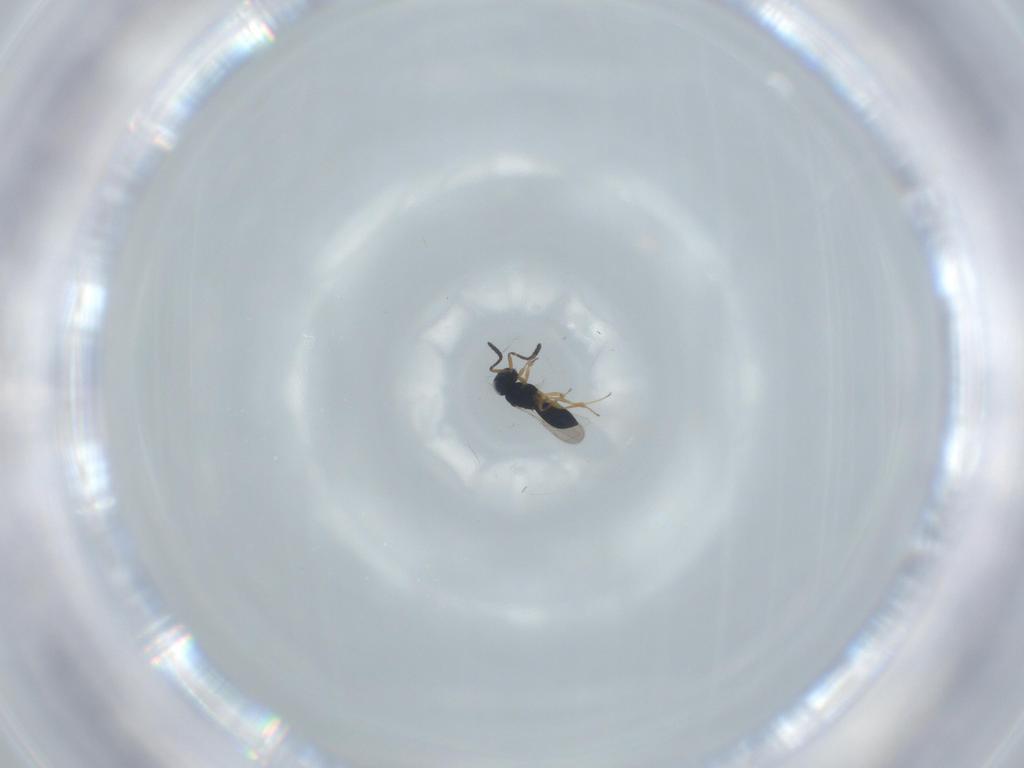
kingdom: Animalia
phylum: Arthropoda
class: Insecta
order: Hymenoptera
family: Scelionidae
